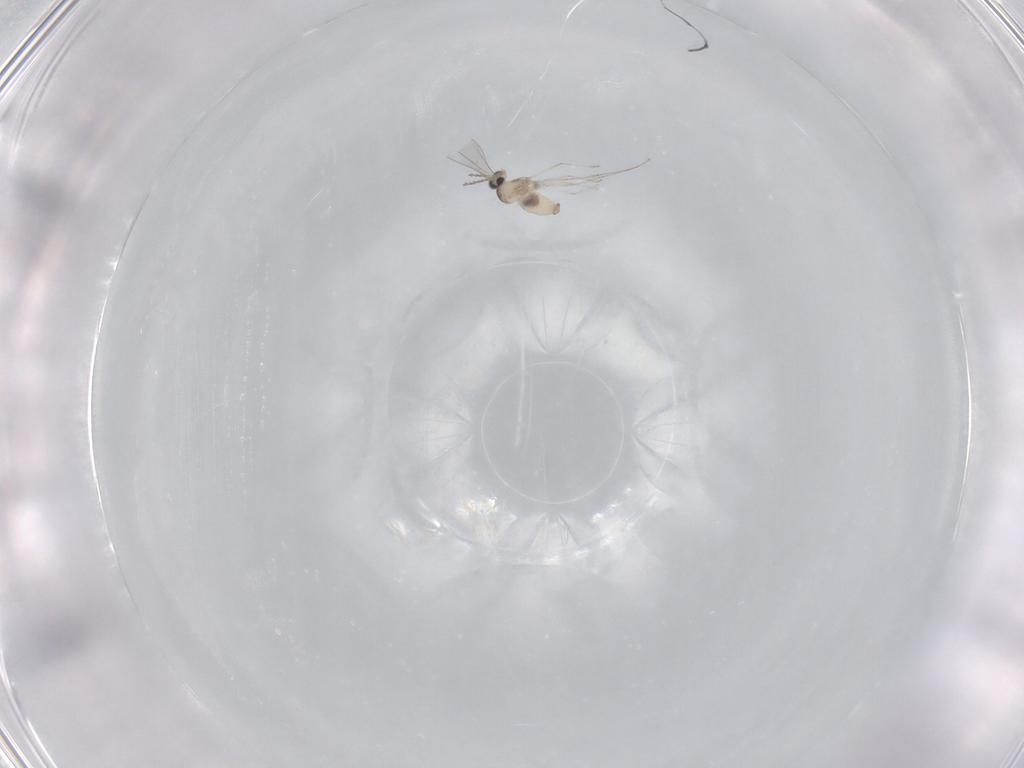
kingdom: Animalia
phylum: Arthropoda
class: Insecta
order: Diptera
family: Cecidomyiidae
